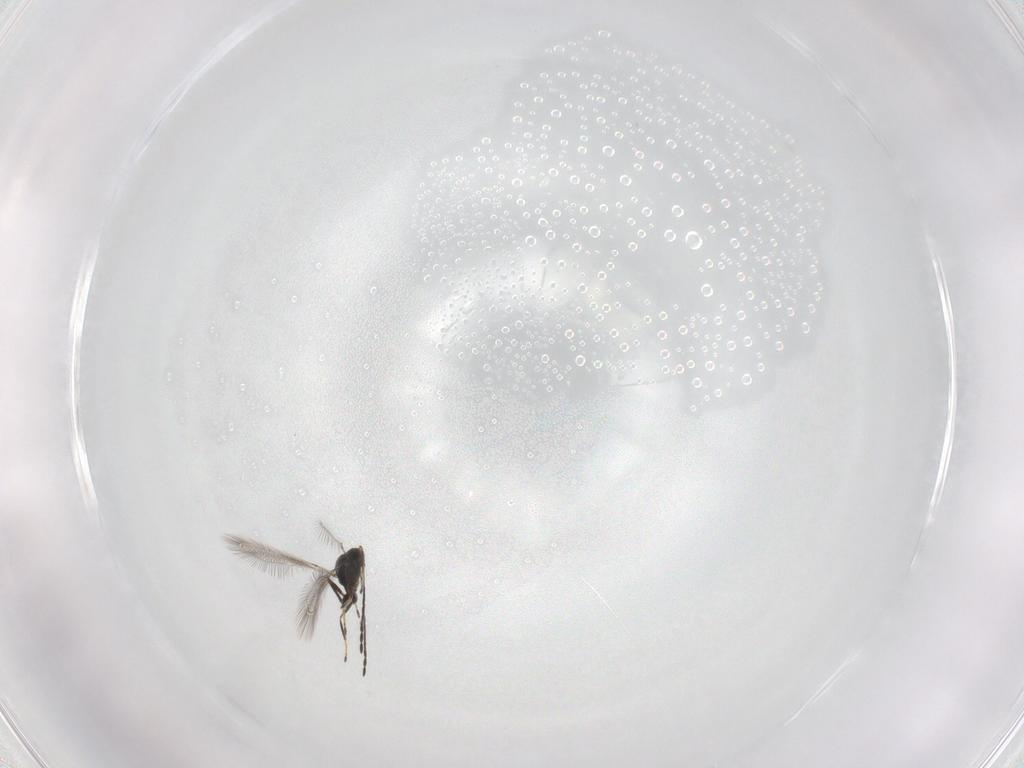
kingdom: Animalia
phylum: Arthropoda
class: Insecta
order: Hymenoptera
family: Mymaridae
